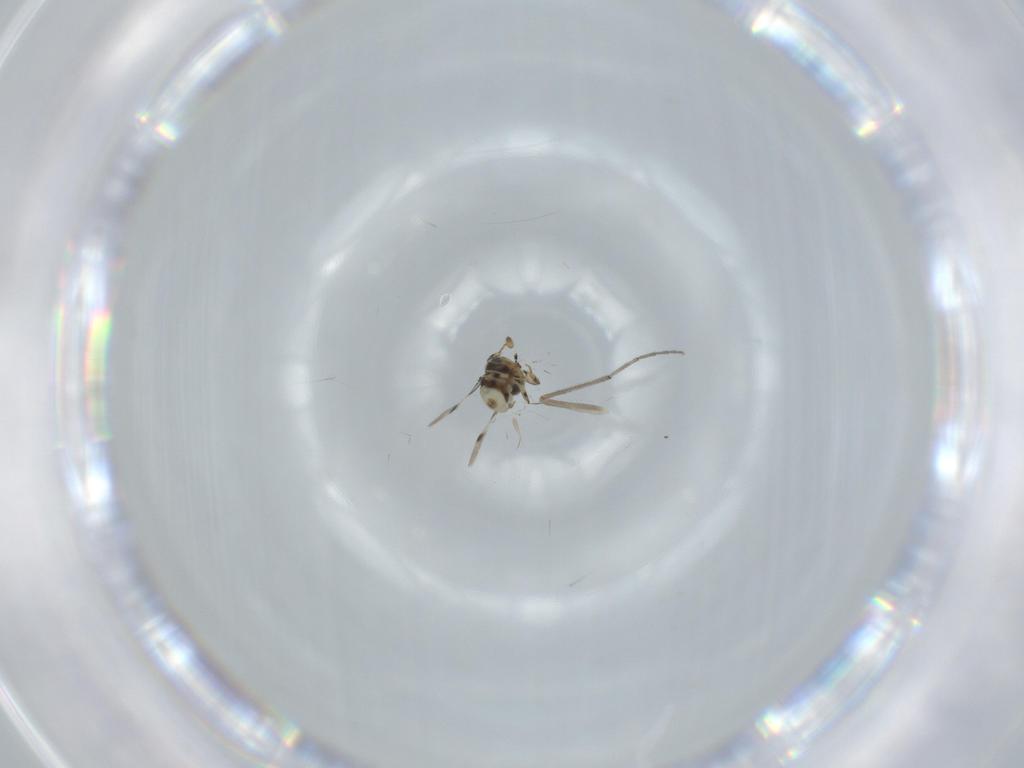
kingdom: Animalia
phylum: Arthropoda
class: Insecta
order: Hymenoptera
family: Scelionidae
